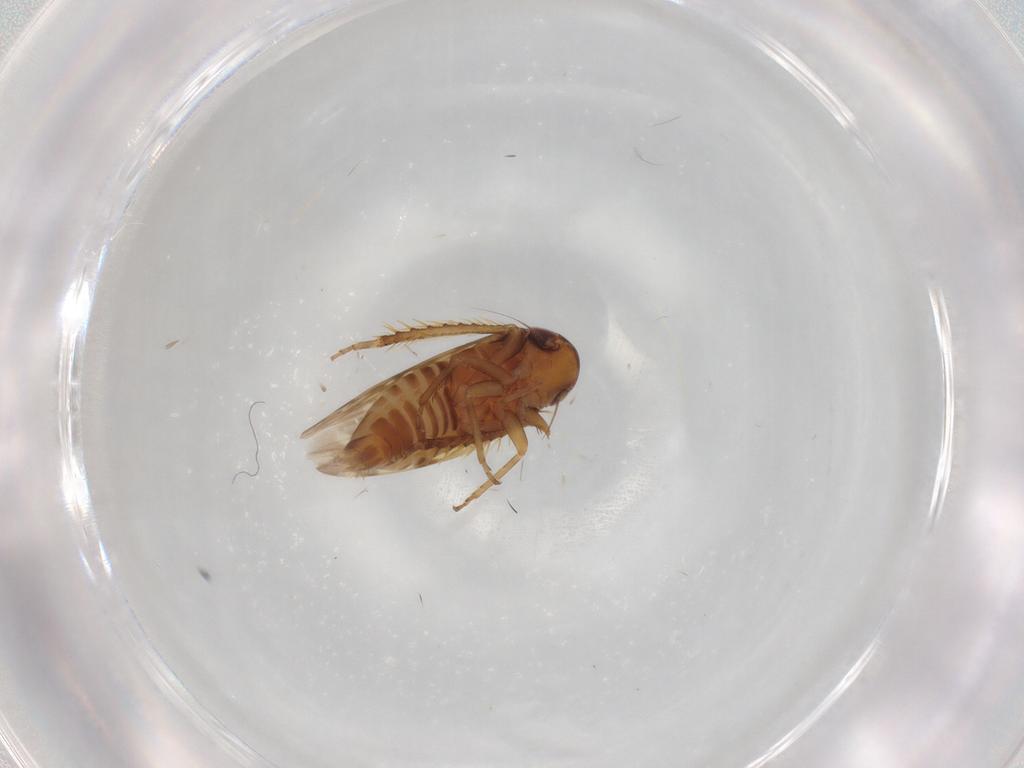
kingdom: Animalia
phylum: Arthropoda
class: Insecta
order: Hemiptera
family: Cicadellidae
